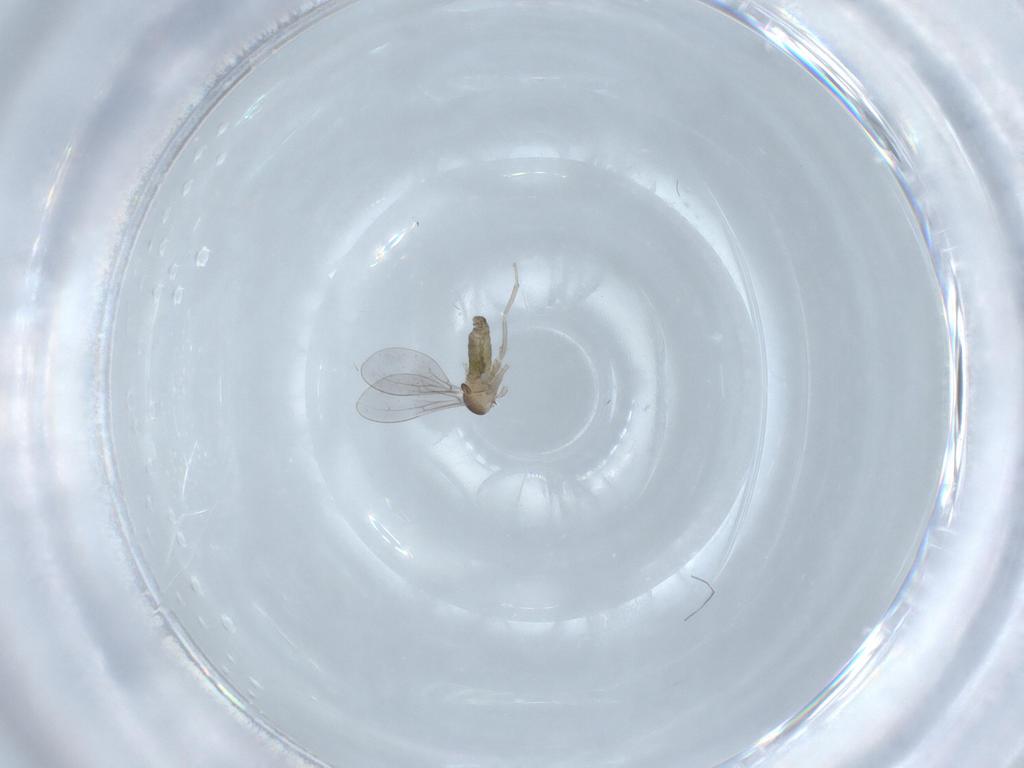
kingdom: Animalia
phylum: Arthropoda
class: Insecta
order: Diptera
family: Cecidomyiidae
